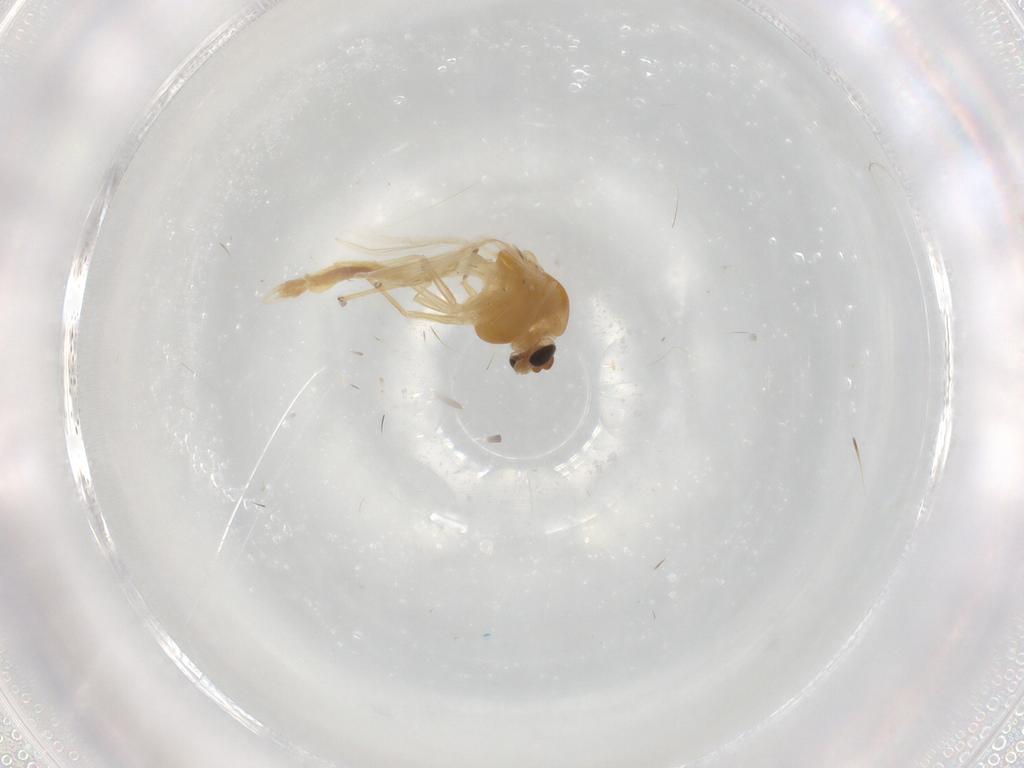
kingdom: Animalia
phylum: Arthropoda
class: Insecta
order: Diptera
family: Chironomidae
